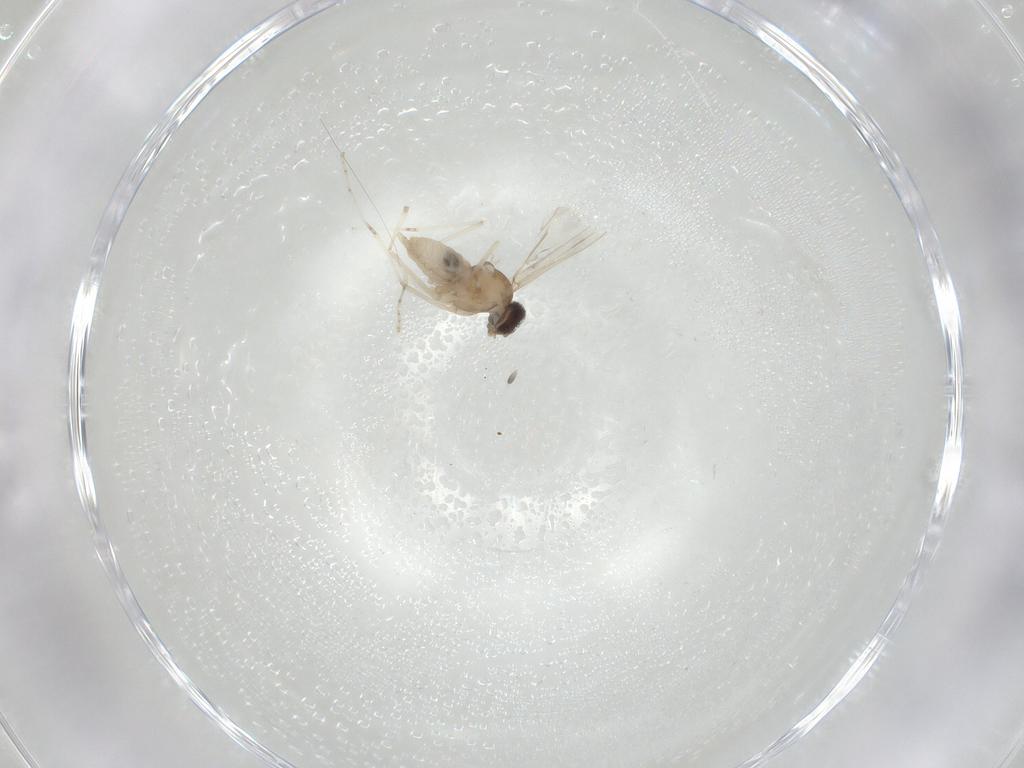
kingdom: Animalia
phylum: Arthropoda
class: Insecta
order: Diptera
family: Cecidomyiidae
